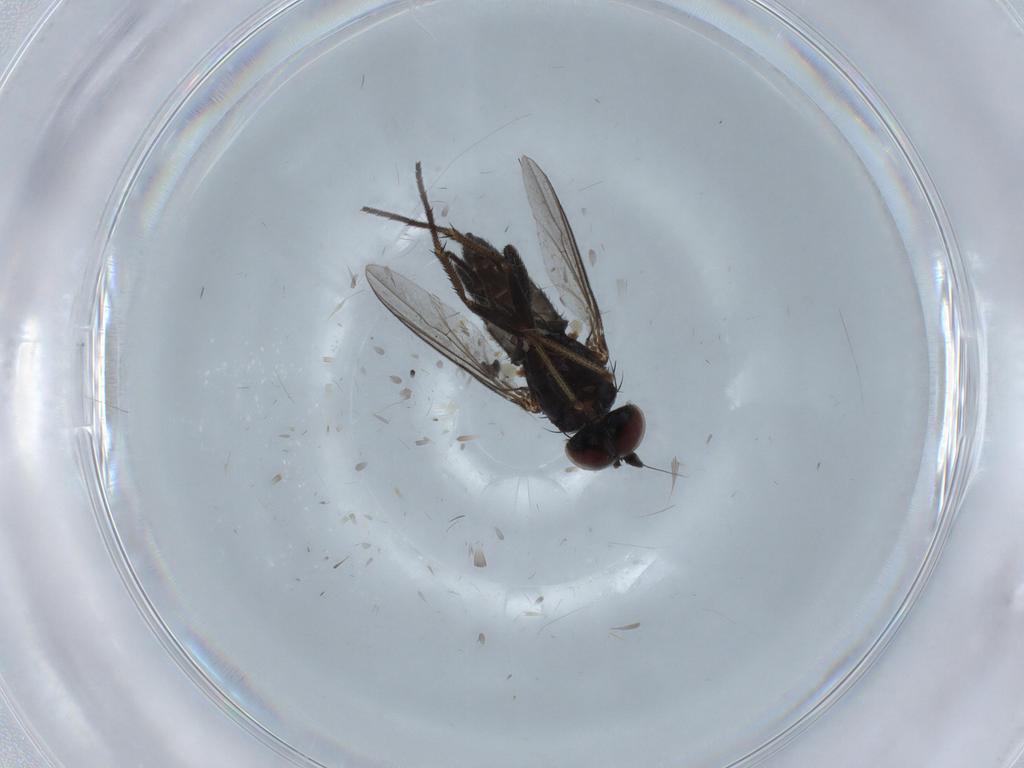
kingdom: Animalia
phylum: Arthropoda
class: Insecta
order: Diptera
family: Dolichopodidae
